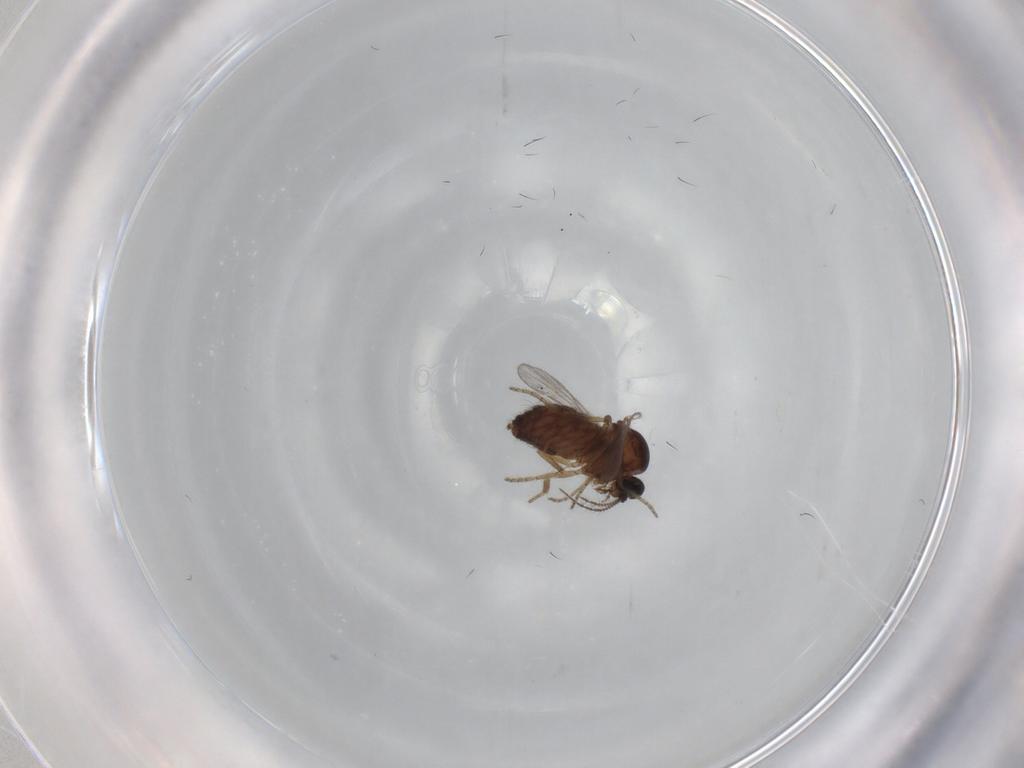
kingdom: Animalia
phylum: Arthropoda
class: Insecta
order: Diptera
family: Ceratopogonidae
